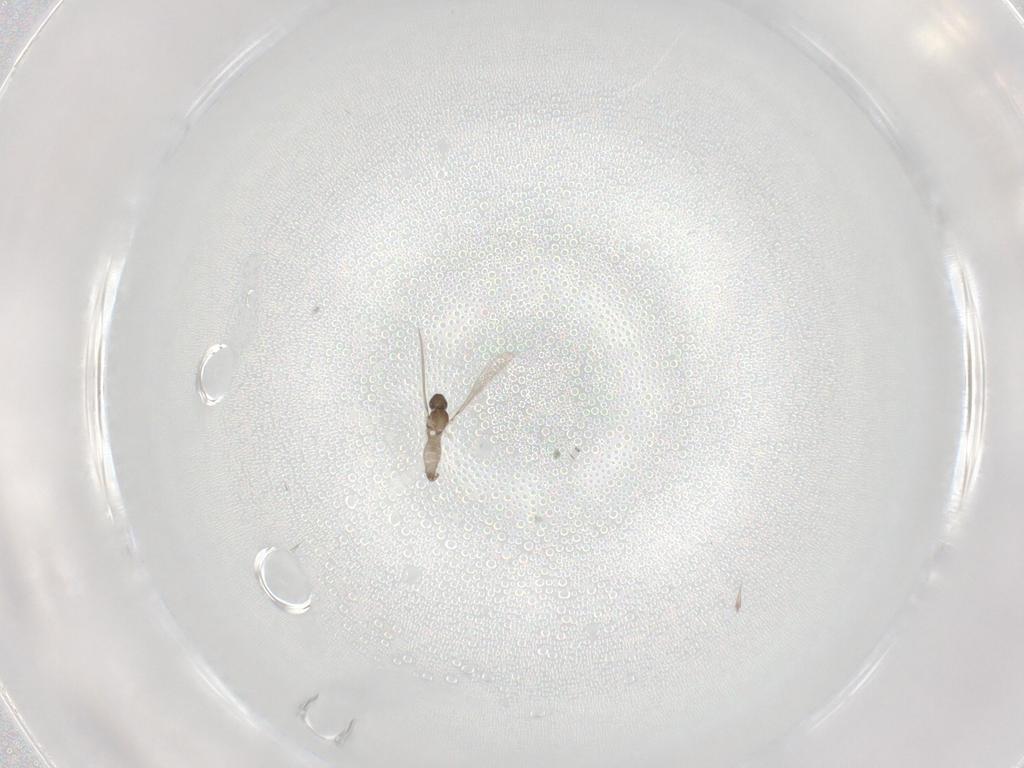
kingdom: Animalia
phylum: Arthropoda
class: Insecta
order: Diptera
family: Cecidomyiidae
